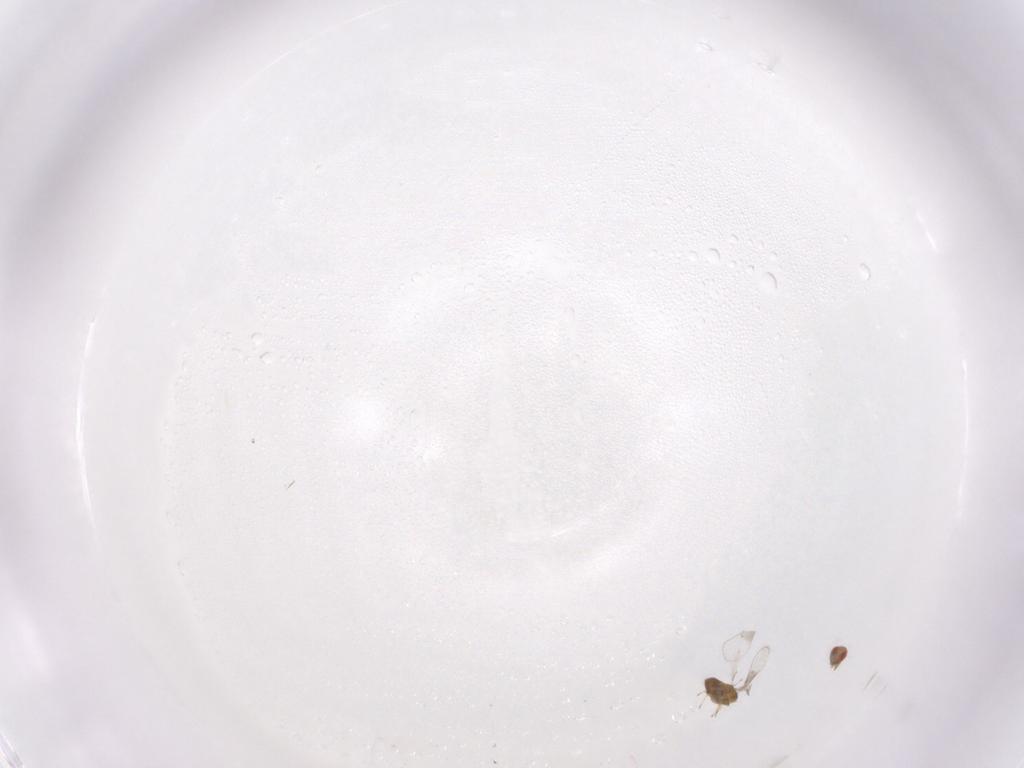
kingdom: Animalia
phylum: Arthropoda
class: Insecta
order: Hymenoptera
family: Trichogrammatidae
